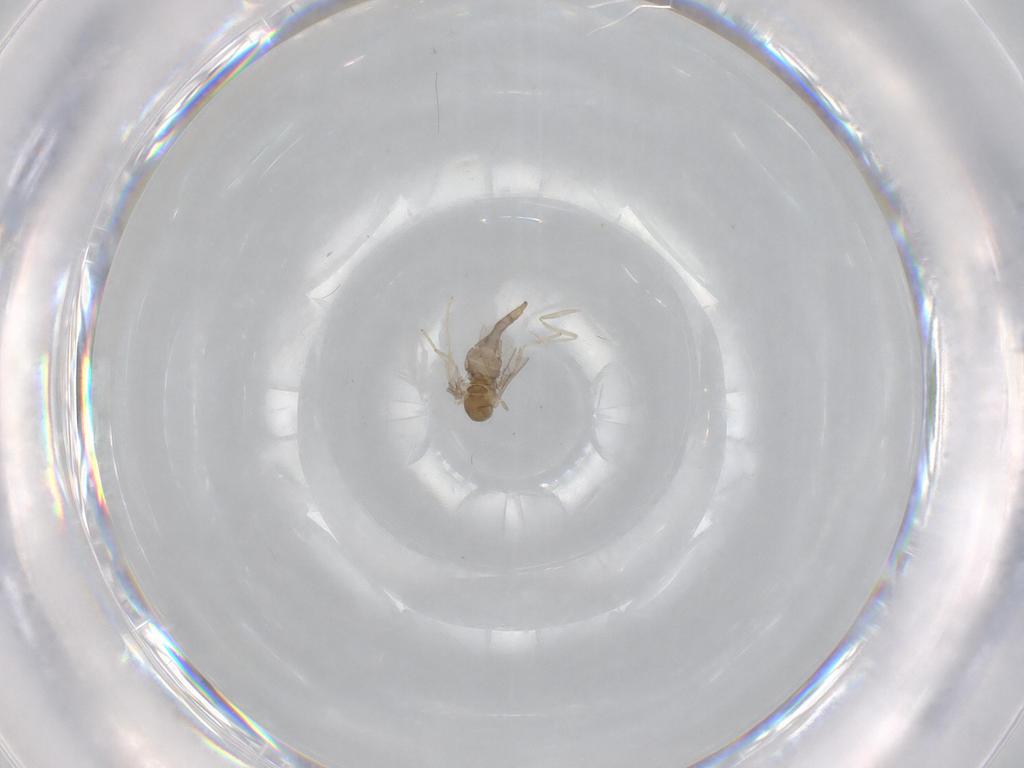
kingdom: Animalia
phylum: Arthropoda
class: Insecta
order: Diptera
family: Cecidomyiidae
